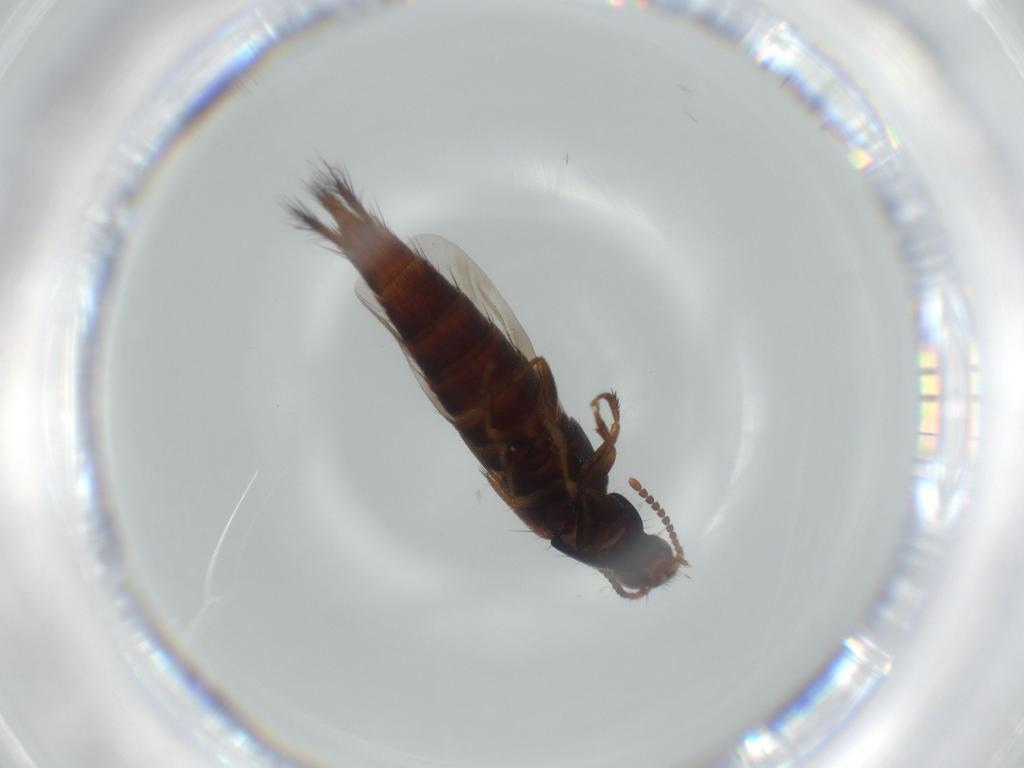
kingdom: Animalia
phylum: Arthropoda
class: Insecta
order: Coleoptera
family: Staphylinidae
